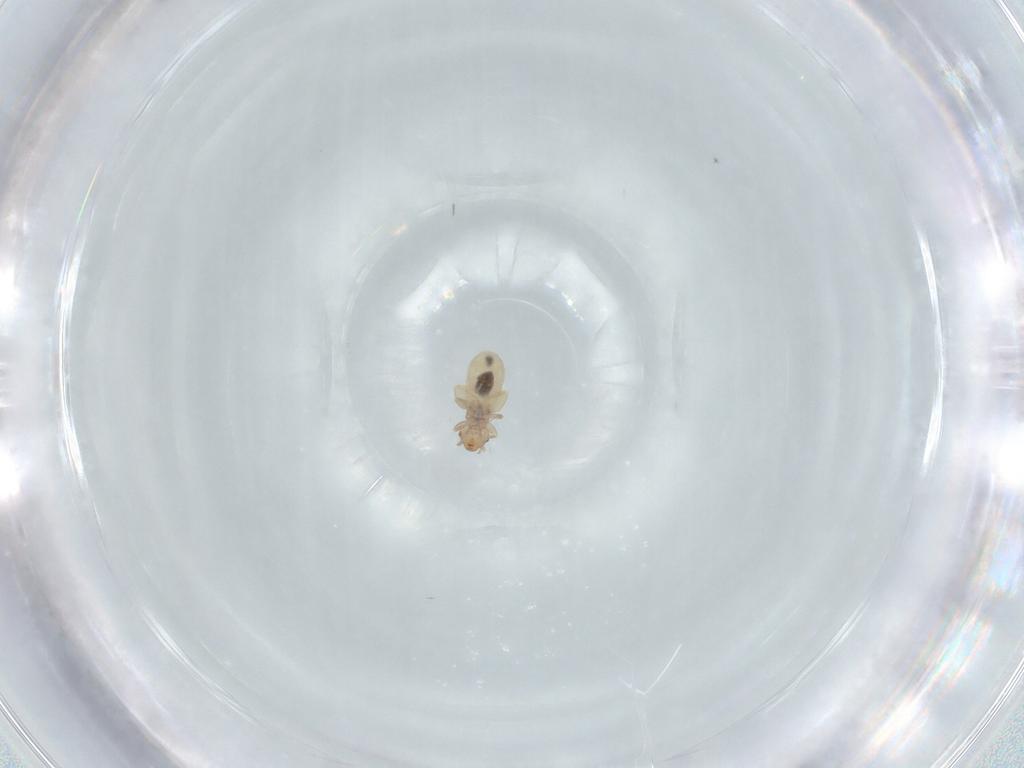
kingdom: Animalia
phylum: Arthropoda
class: Insecta
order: Psocodea
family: Liposcelididae
